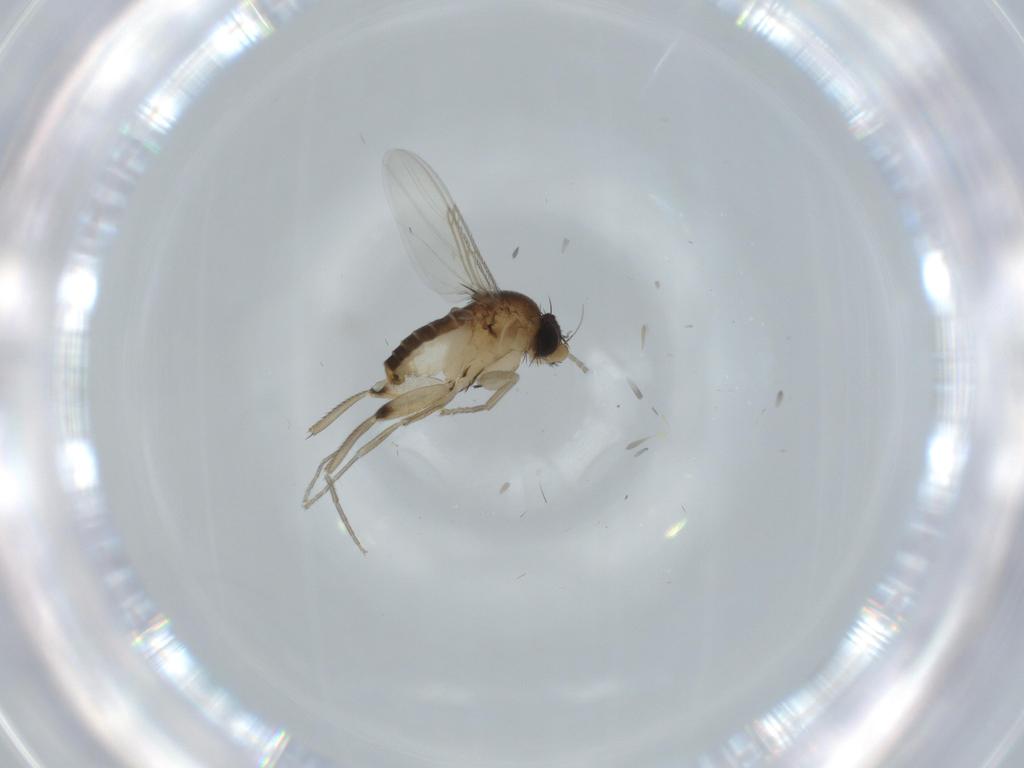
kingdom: Animalia
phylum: Arthropoda
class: Insecta
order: Diptera
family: Phoridae
